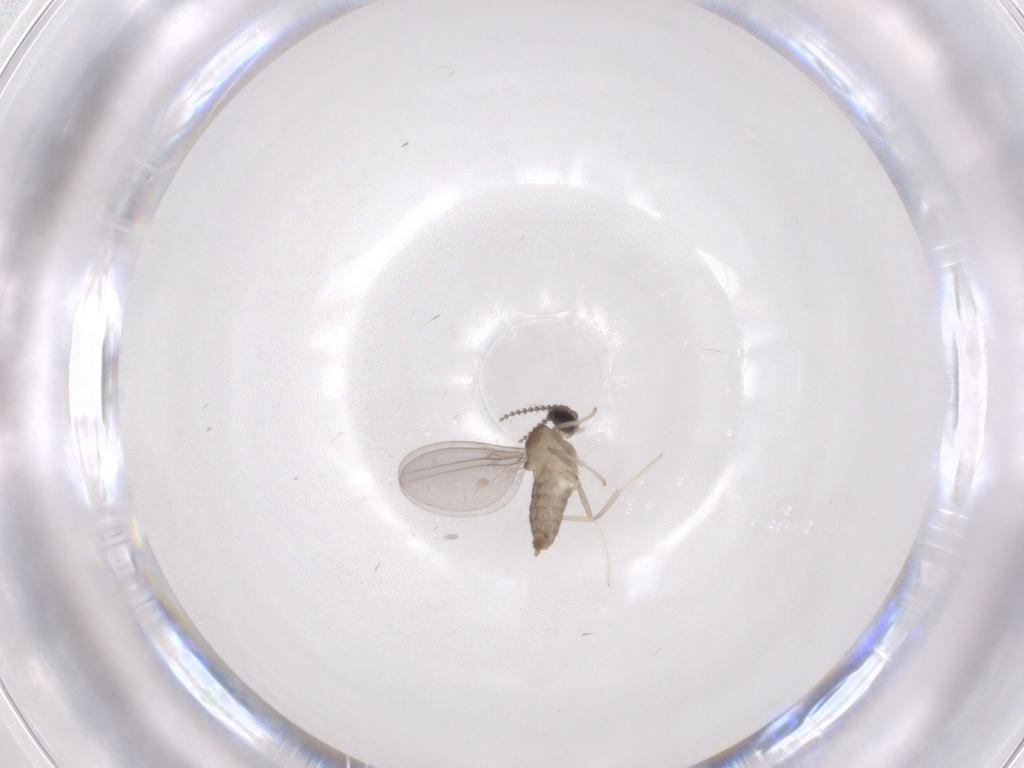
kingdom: Animalia
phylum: Arthropoda
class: Insecta
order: Diptera
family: Cecidomyiidae
